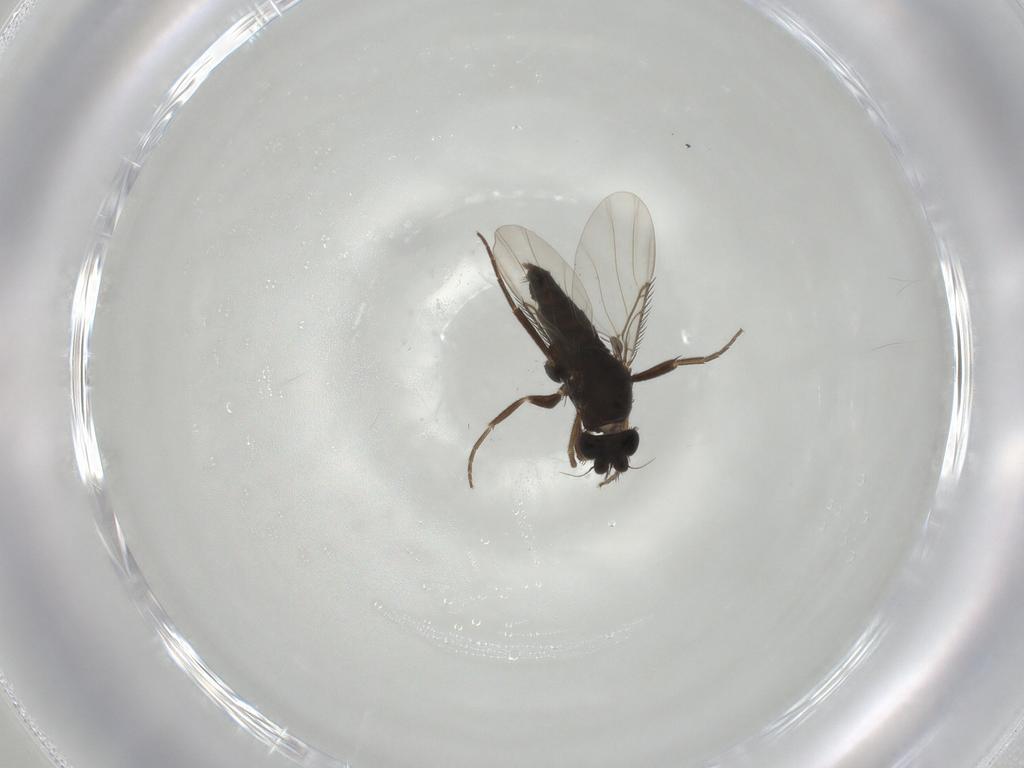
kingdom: Animalia
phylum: Arthropoda
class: Insecta
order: Diptera
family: Phoridae
